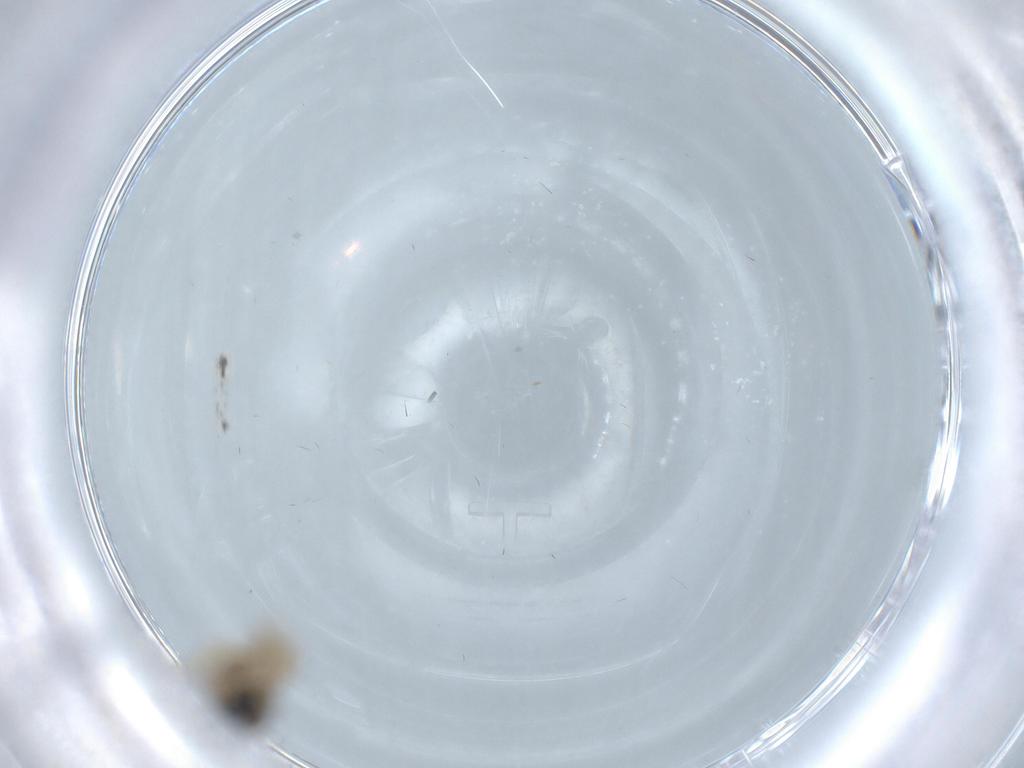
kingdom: Animalia
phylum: Arthropoda
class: Insecta
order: Diptera
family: Cecidomyiidae
